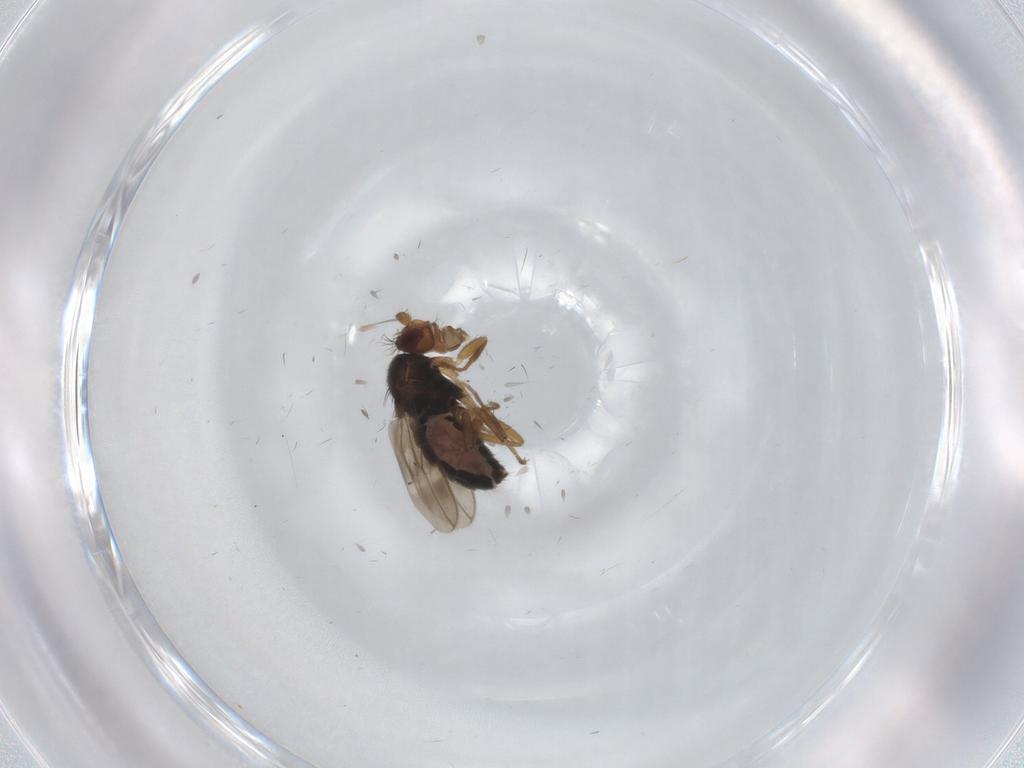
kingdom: Animalia
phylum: Arthropoda
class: Insecta
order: Diptera
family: Sphaeroceridae
